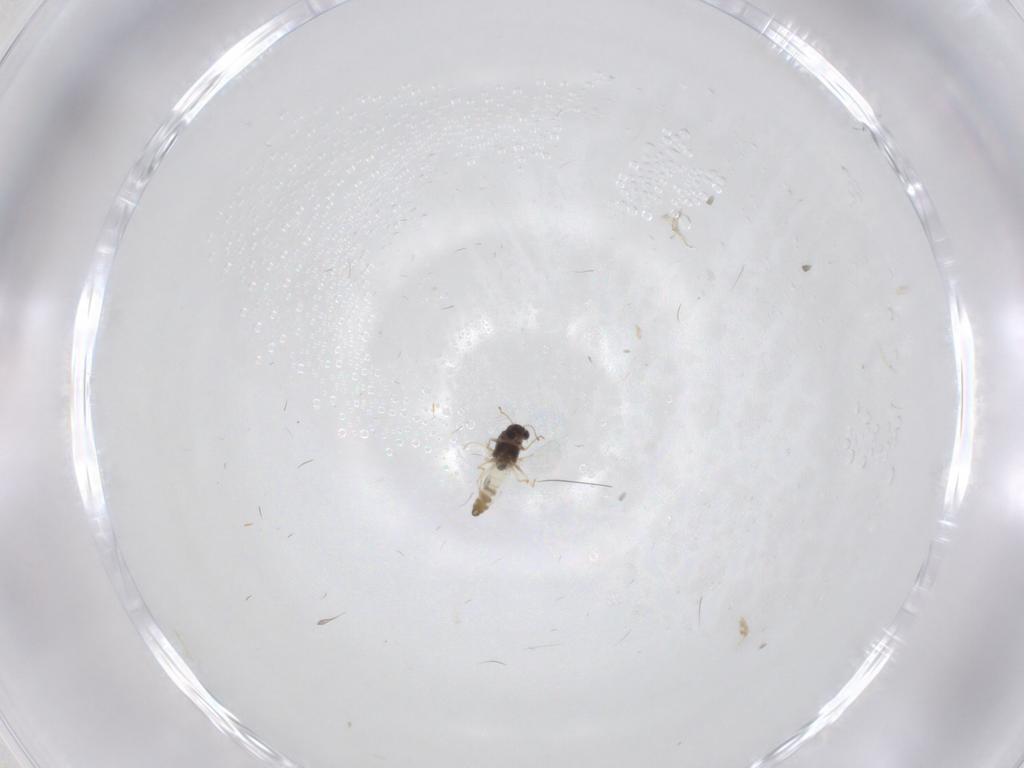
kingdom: Animalia
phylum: Arthropoda
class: Insecta
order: Diptera
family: Chironomidae
